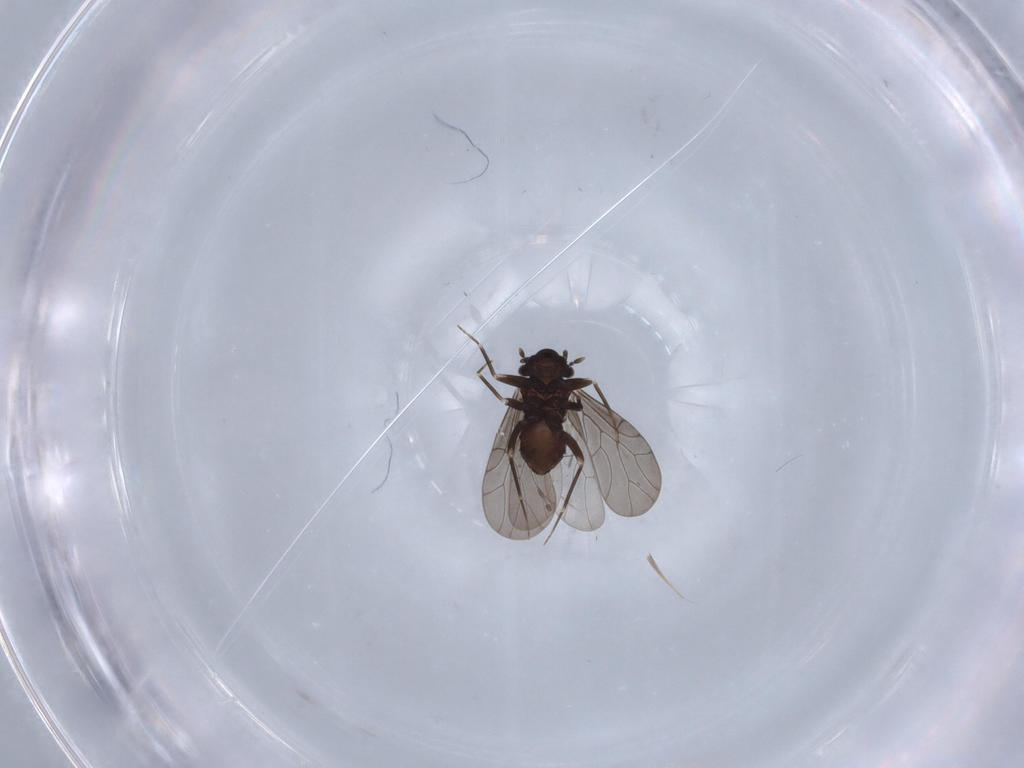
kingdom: Animalia
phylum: Arthropoda
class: Insecta
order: Psocodea
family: Lepidopsocidae
